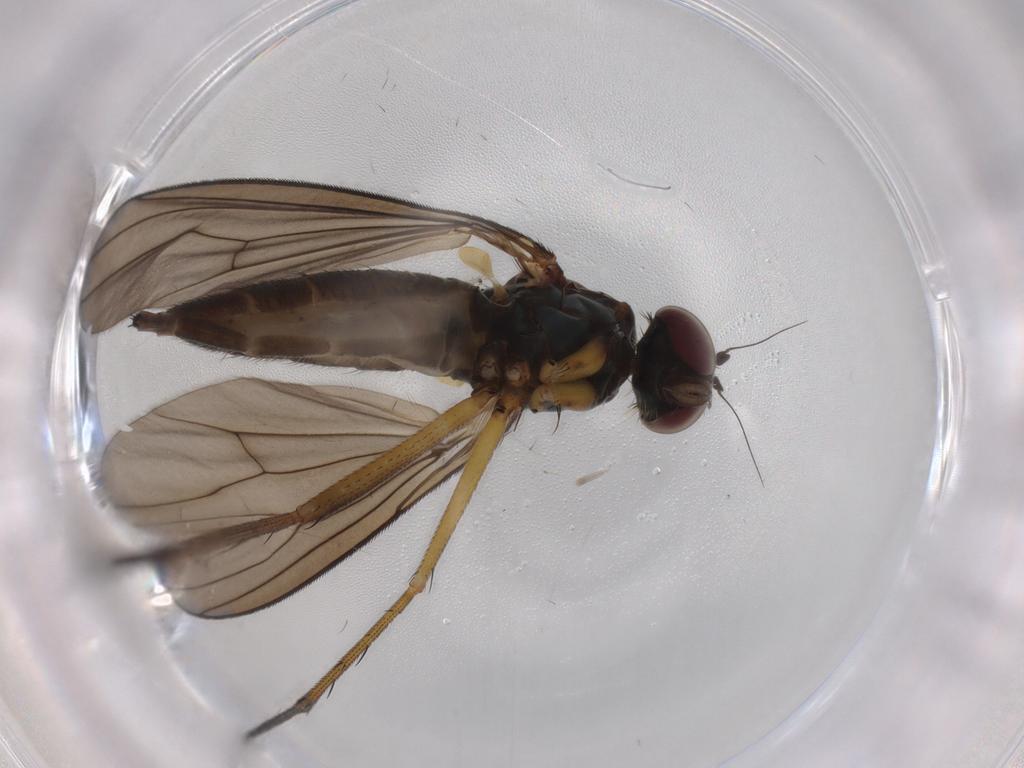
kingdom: Animalia
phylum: Arthropoda
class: Insecta
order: Diptera
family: Dolichopodidae
